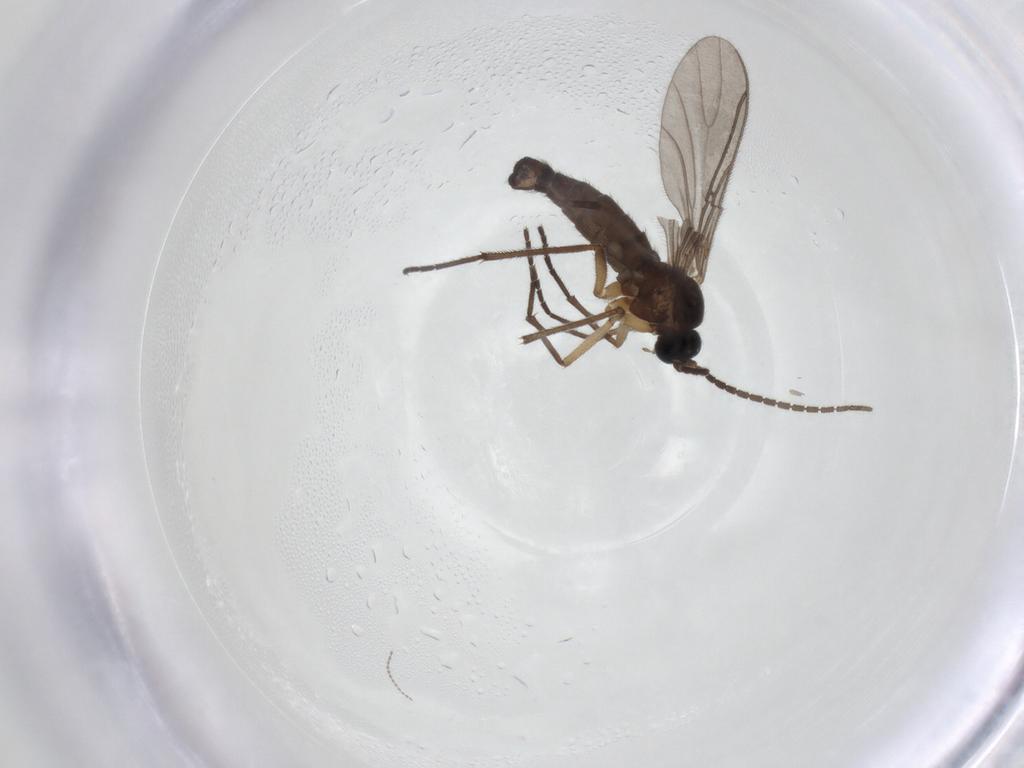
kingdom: Animalia
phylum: Arthropoda
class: Insecta
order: Diptera
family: Sciaridae
